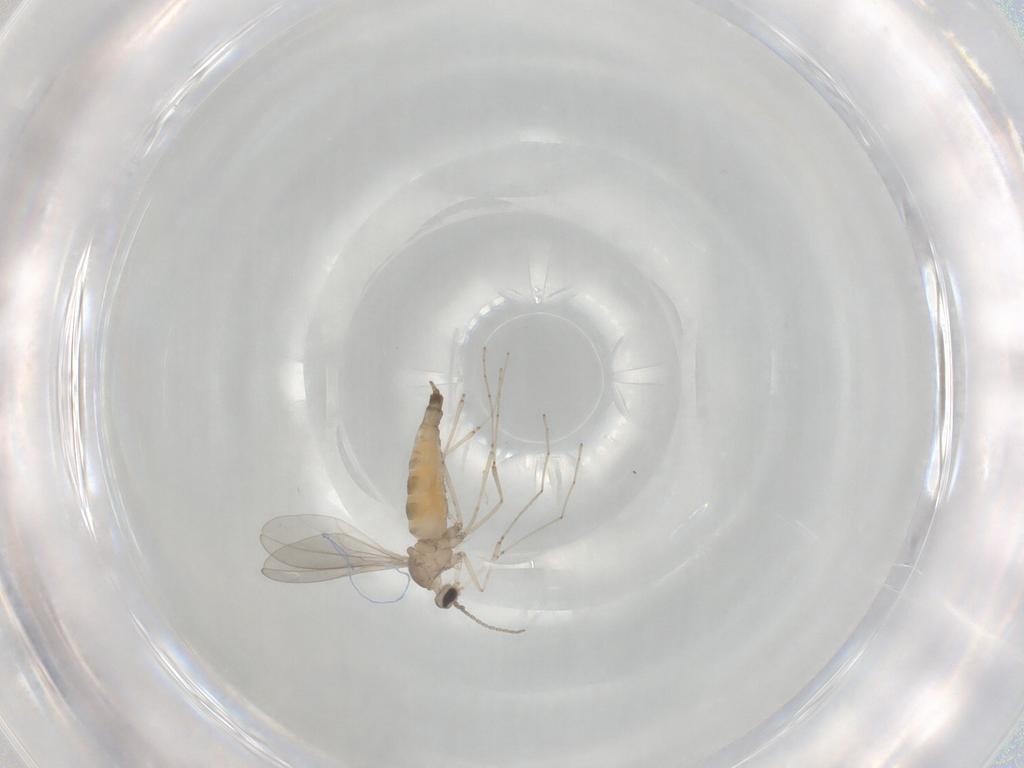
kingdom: Animalia
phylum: Arthropoda
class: Insecta
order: Diptera
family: Cecidomyiidae
